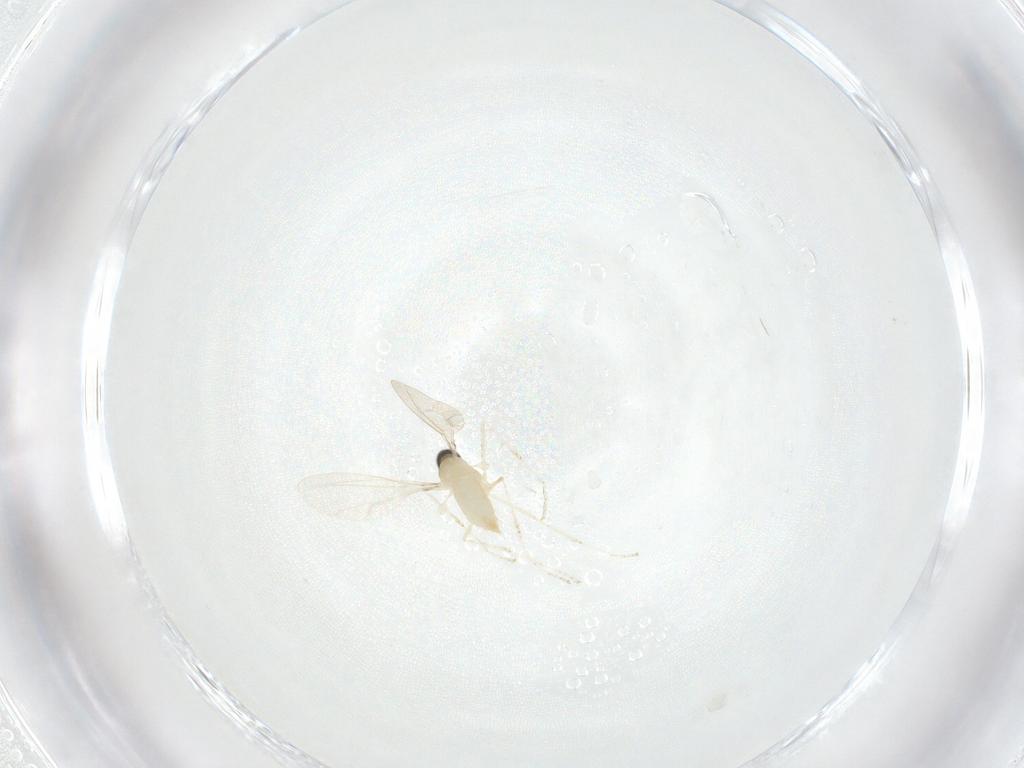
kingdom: Animalia
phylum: Arthropoda
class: Insecta
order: Diptera
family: Cecidomyiidae
